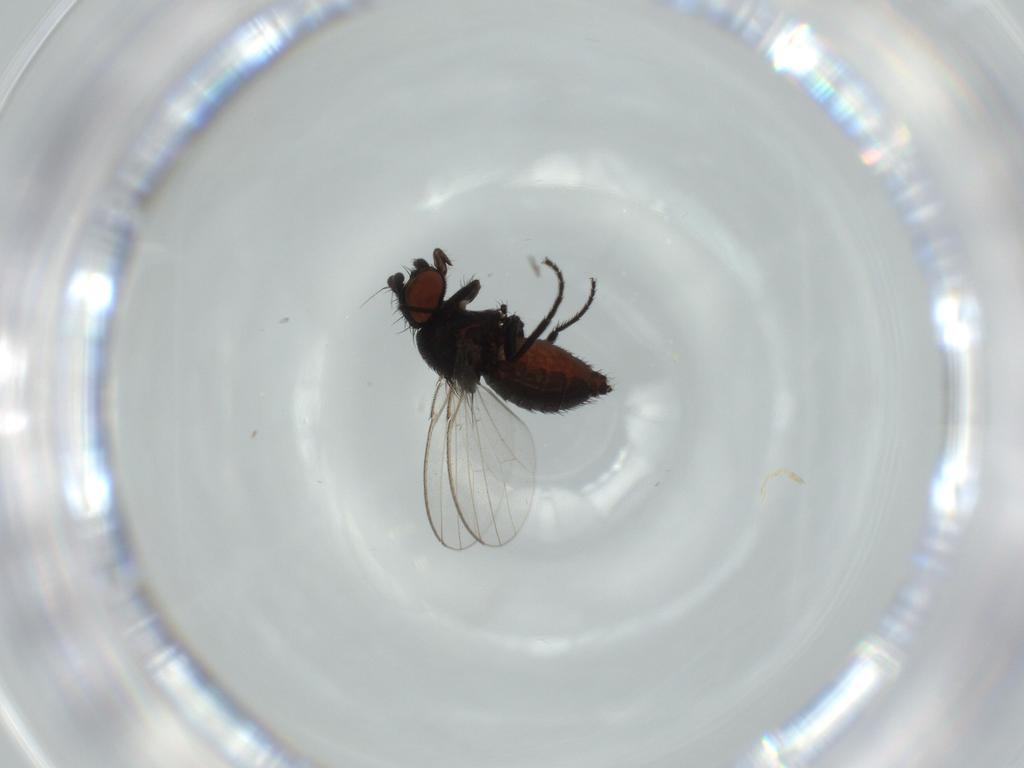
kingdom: Animalia
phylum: Arthropoda
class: Insecta
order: Diptera
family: Milichiidae
